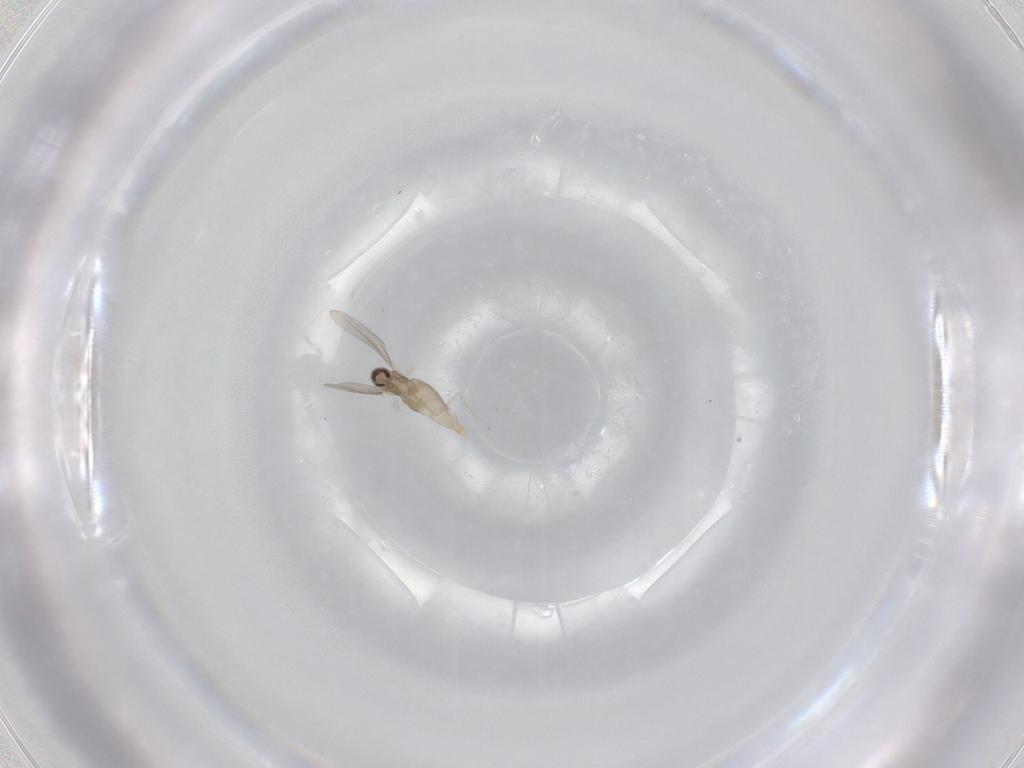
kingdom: Animalia
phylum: Arthropoda
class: Insecta
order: Diptera
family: Cecidomyiidae
